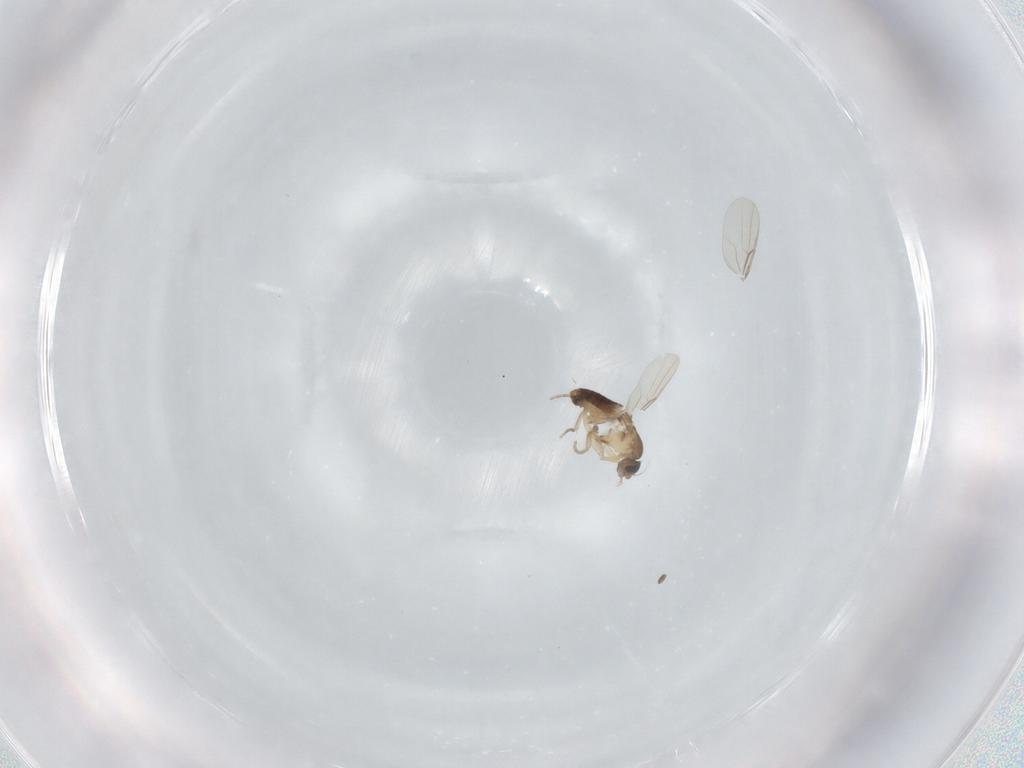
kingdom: Animalia
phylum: Arthropoda
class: Insecta
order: Diptera
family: Phoridae
